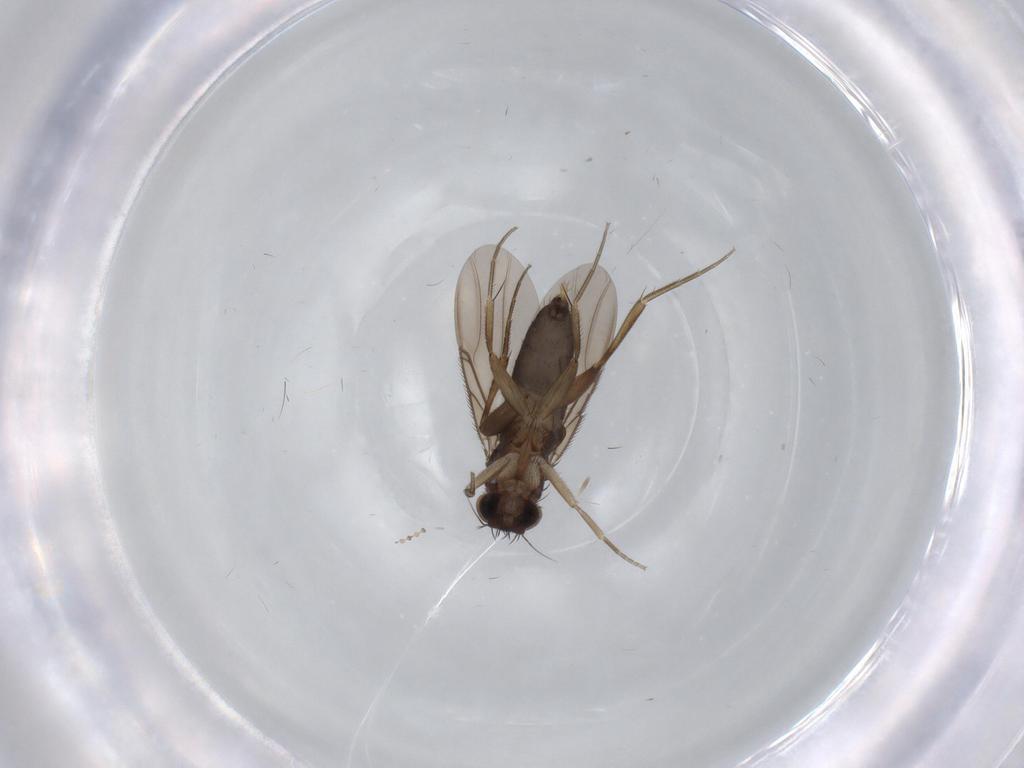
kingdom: Animalia
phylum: Arthropoda
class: Insecta
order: Diptera
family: Phoridae
